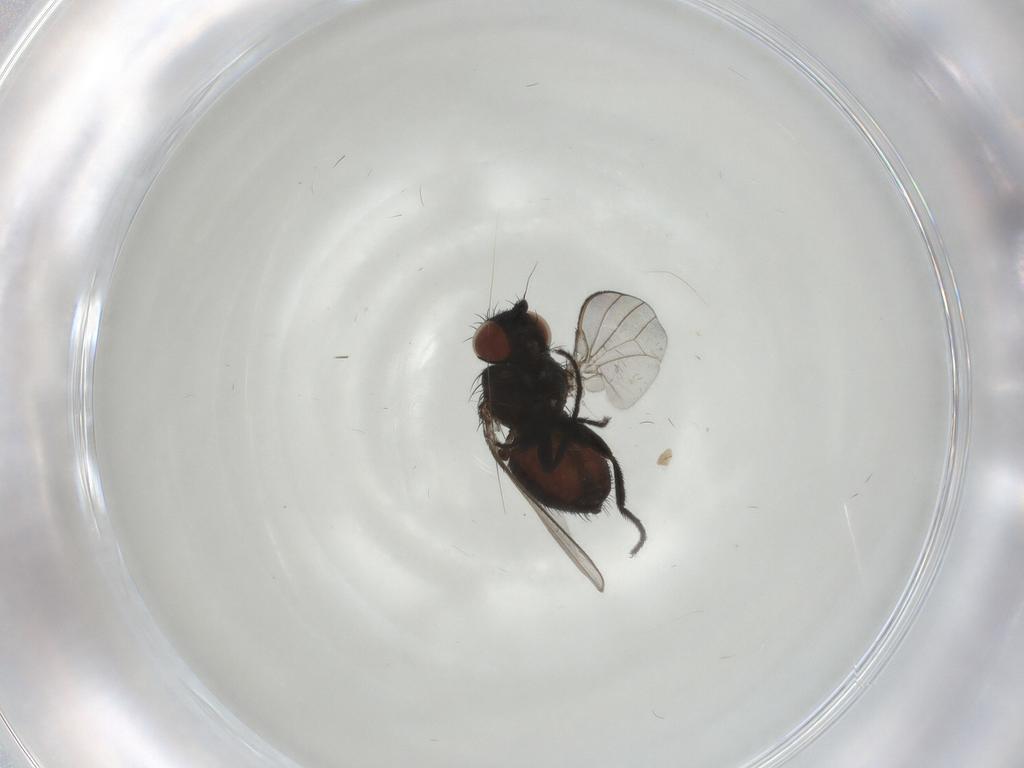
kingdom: Animalia
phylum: Arthropoda
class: Insecta
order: Diptera
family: Milichiidae
